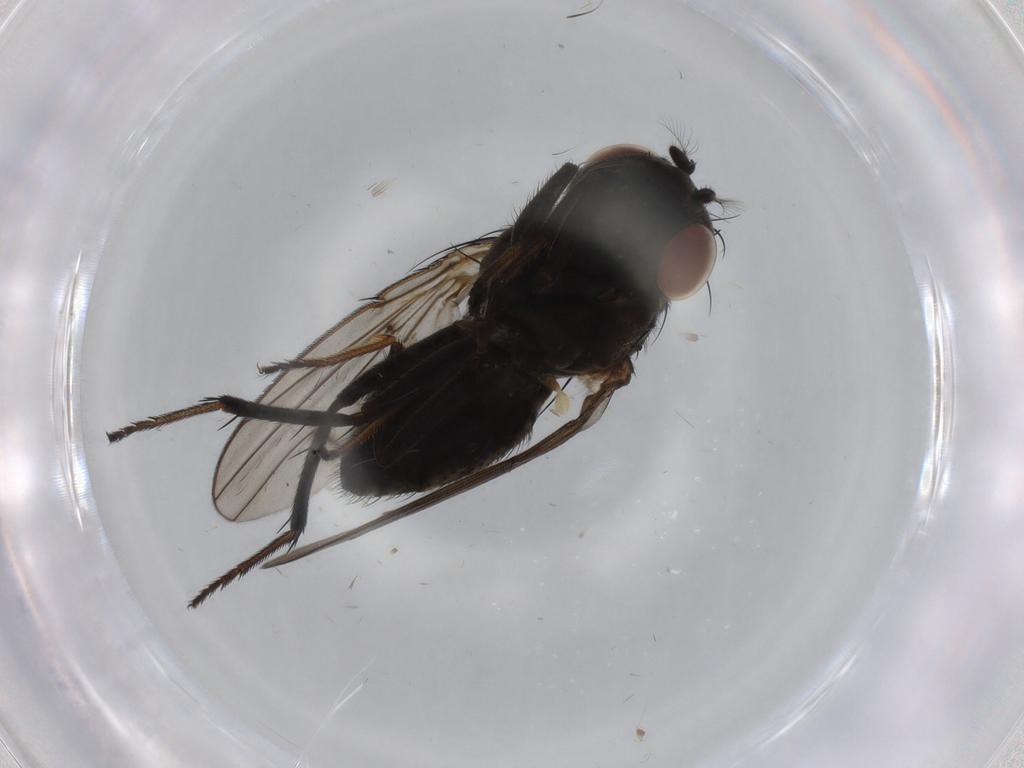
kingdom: Animalia
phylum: Arthropoda
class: Insecta
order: Diptera
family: Ephydridae
